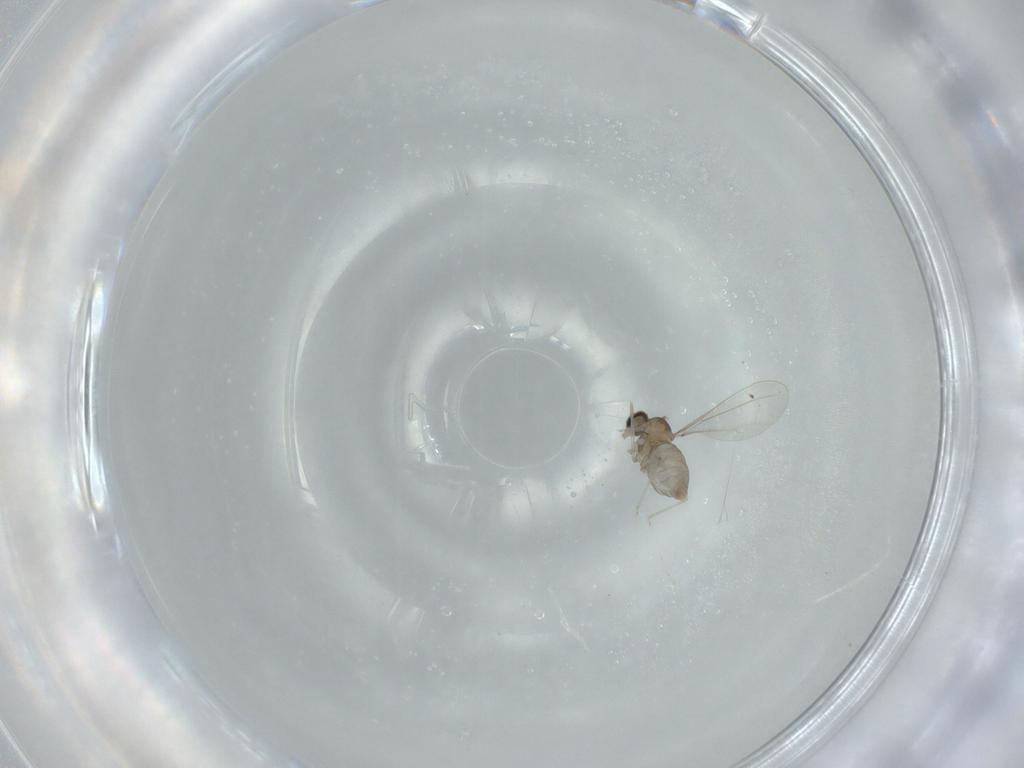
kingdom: Animalia
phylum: Arthropoda
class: Insecta
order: Diptera
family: Cecidomyiidae
